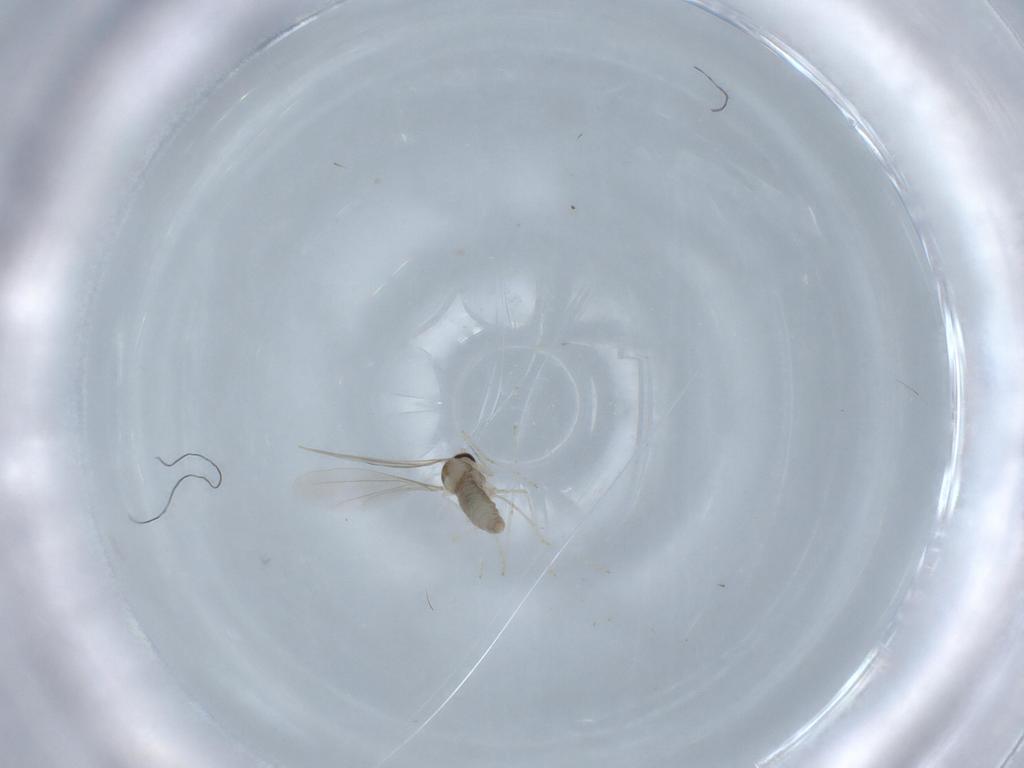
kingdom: Animalia
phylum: Arthropoda
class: Insecta
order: Diptera
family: Cecidomyiidae
